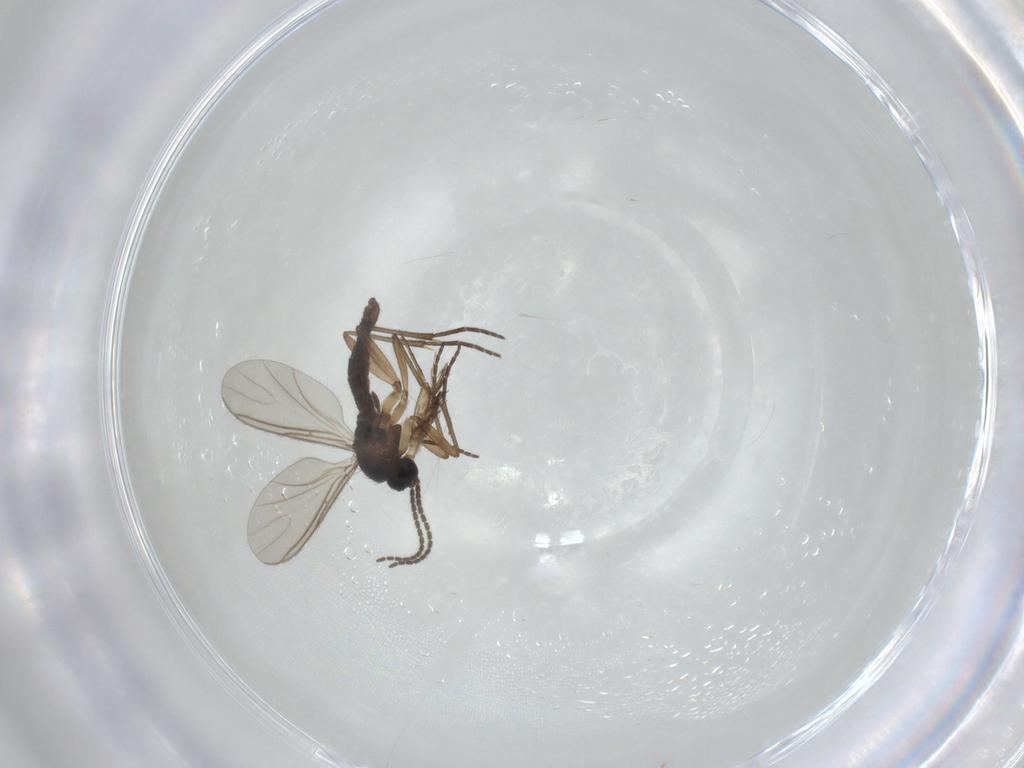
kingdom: Animalia
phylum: Arthropoda
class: Insecta
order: Diptera
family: Sciaridae
